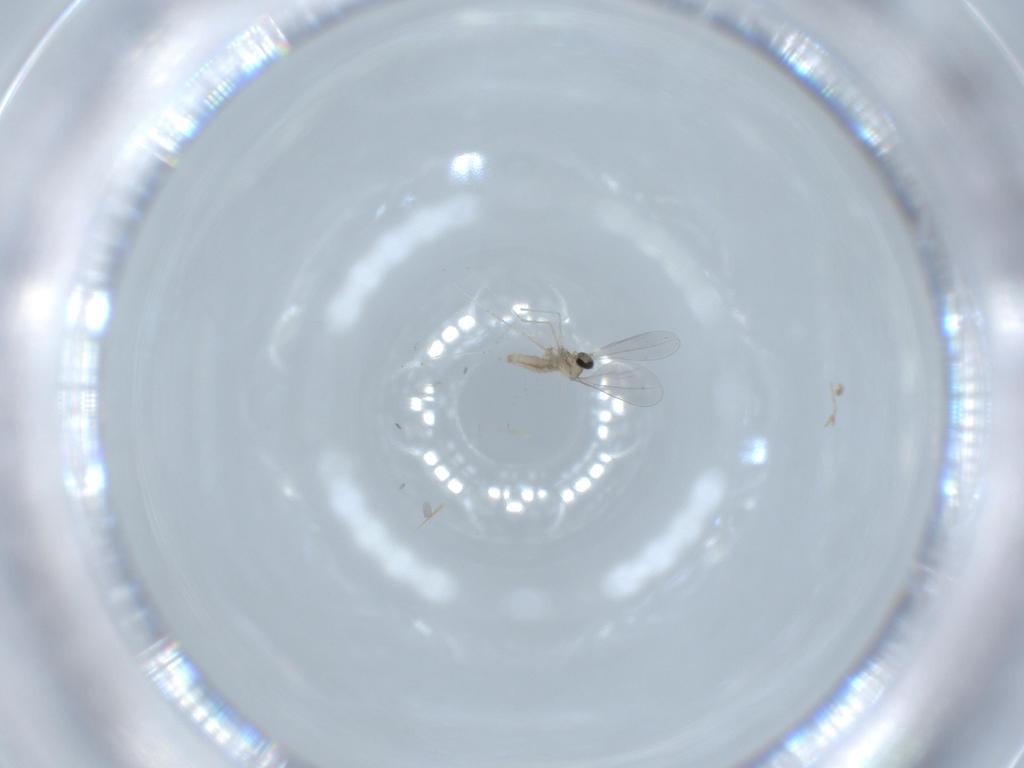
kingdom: Animalia
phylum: Arthropoda
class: Insecta
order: Diptera
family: Cecidomyiidae
